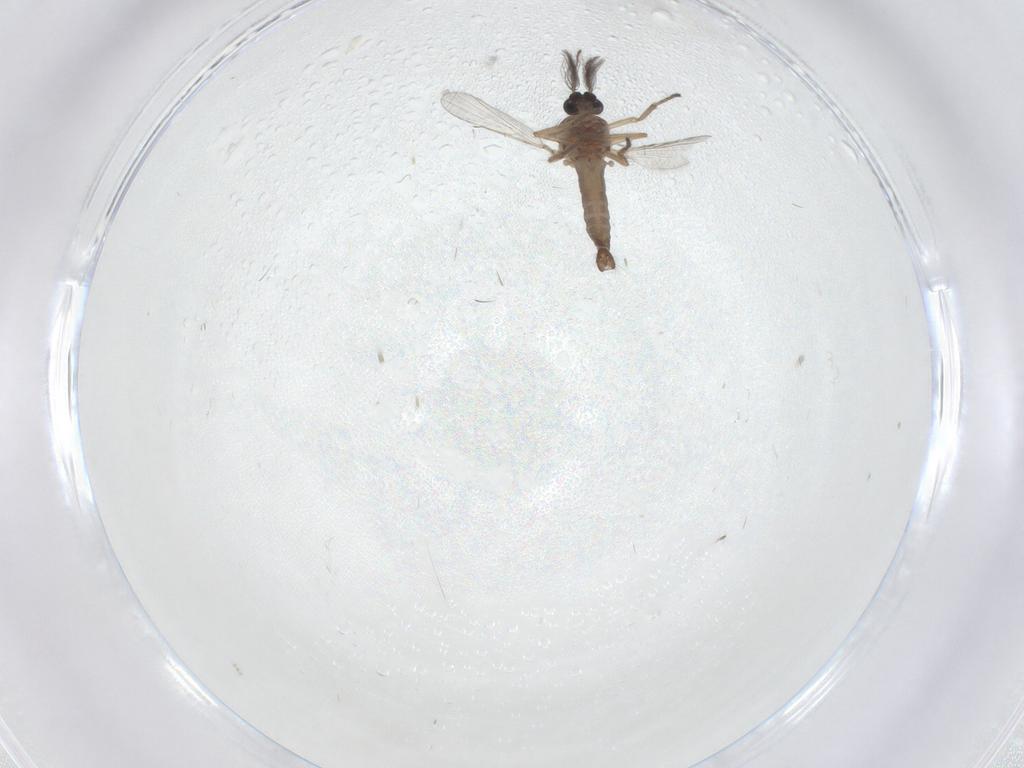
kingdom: Animalia
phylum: Arthropoda
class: Insecta
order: Diptera
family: Ceratopogonidae
